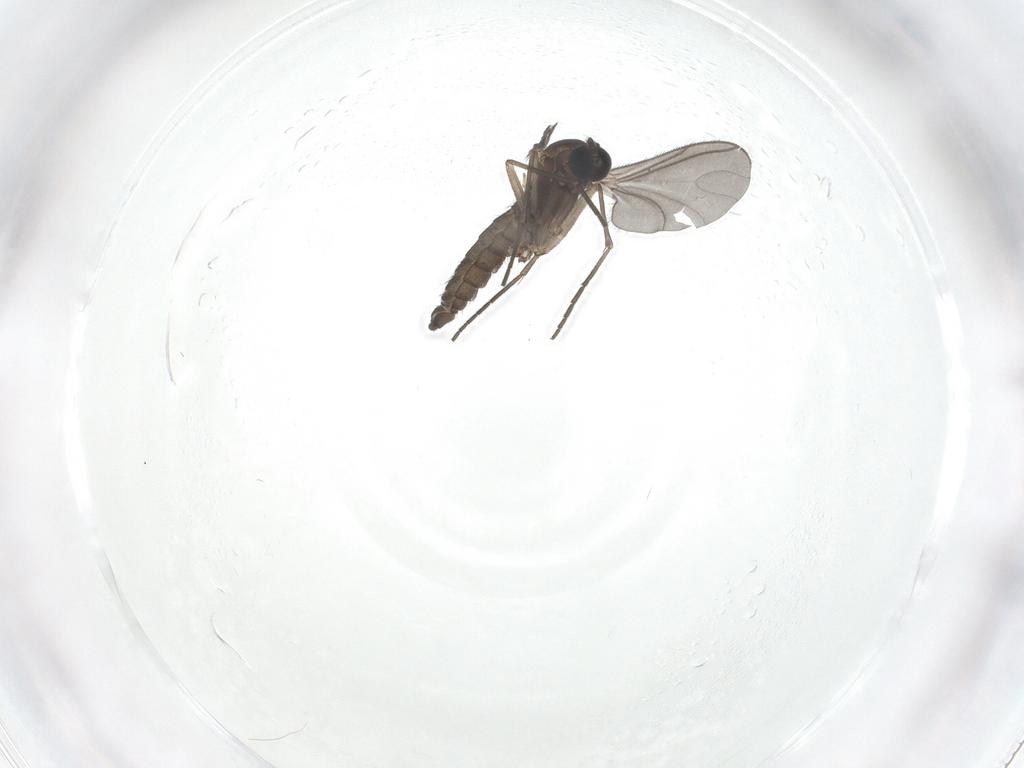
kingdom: Animalia
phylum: Arthropoda
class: Insecta
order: Diptera
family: Sciaridae
